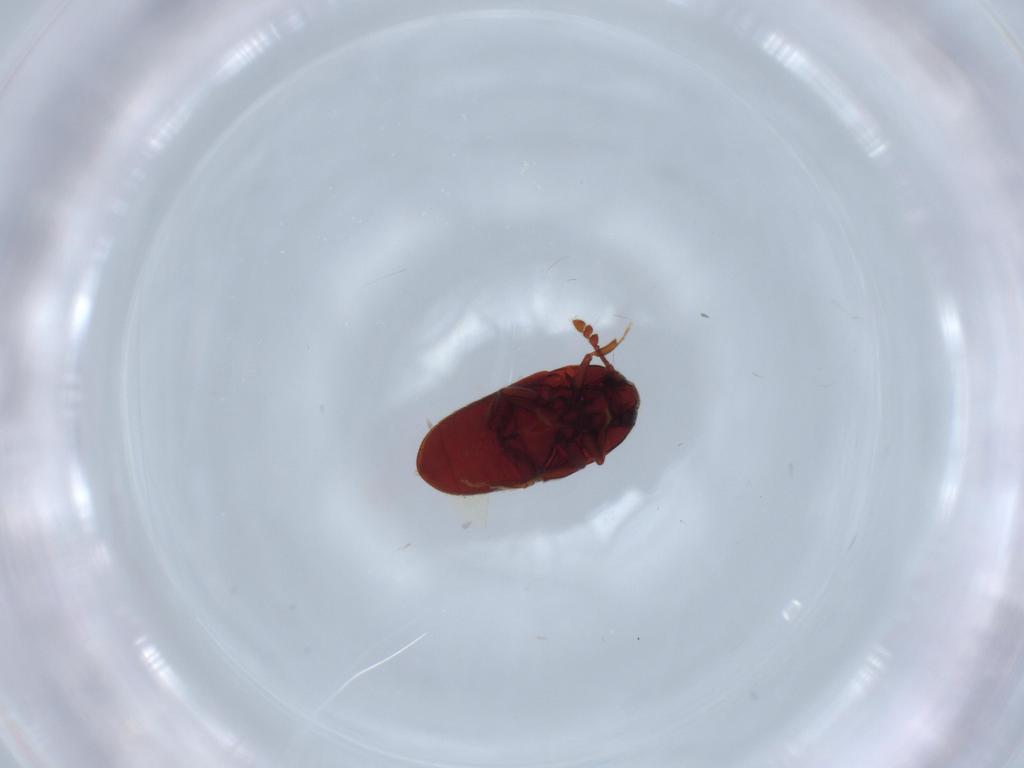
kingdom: Animalia
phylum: Arthropoda
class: Insecta
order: Coleoptera
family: Throscidae
